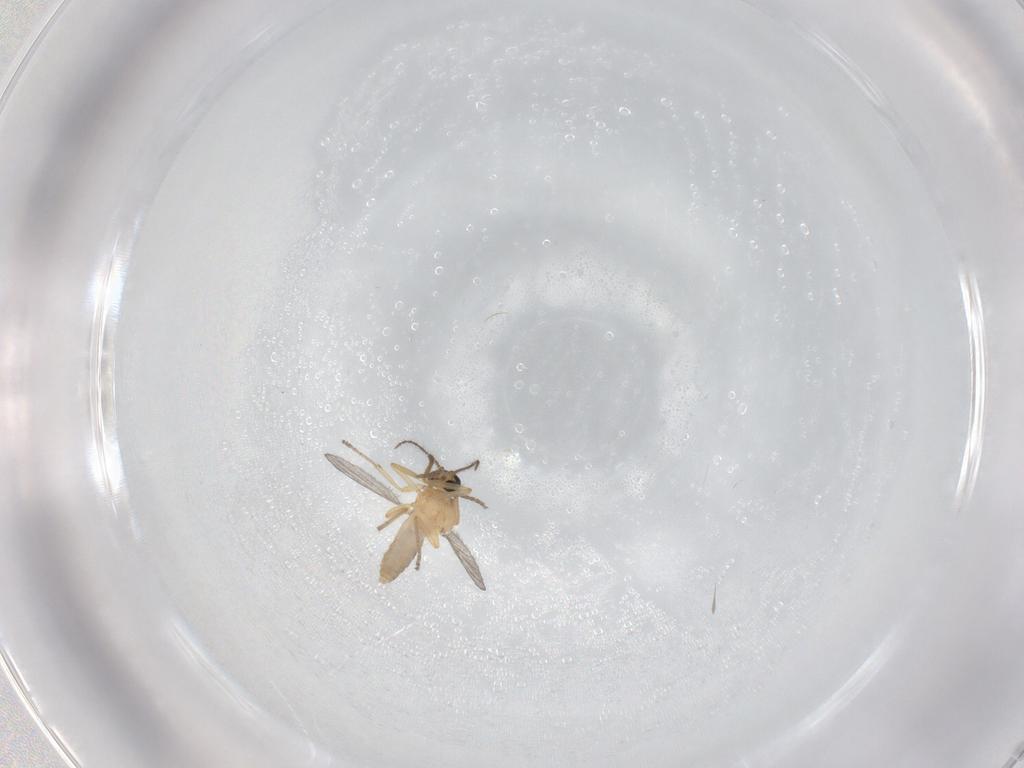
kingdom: Animalia
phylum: Arthropoda
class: Insecta
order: Diptera
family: Ceratopogonidae
